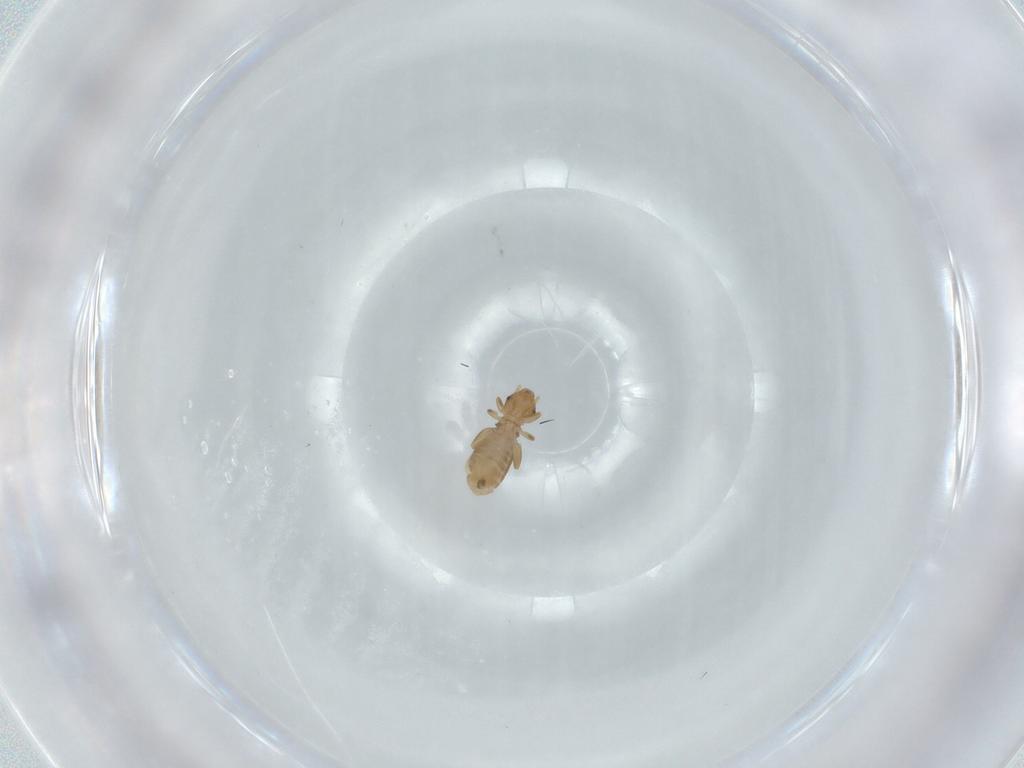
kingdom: Animalia
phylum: Arthropoda
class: Insecta
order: Psocodea
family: Liposcelididae
